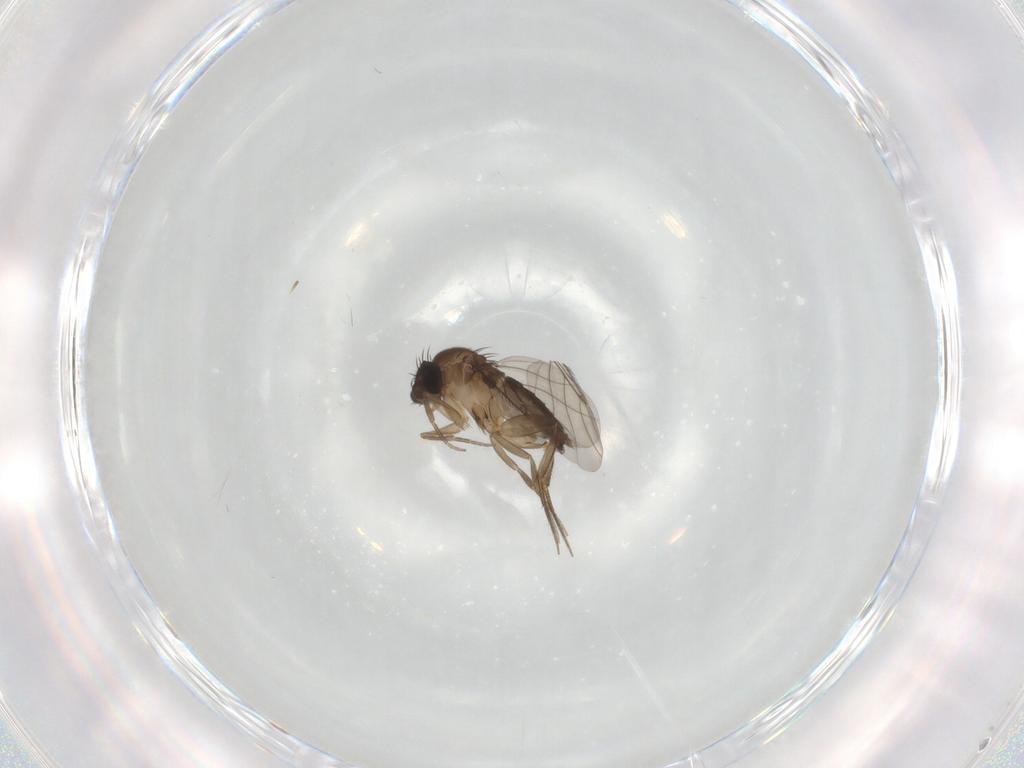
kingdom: Animalia
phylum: Arthropoda
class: Insecta
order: Diptera
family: Phoridae
